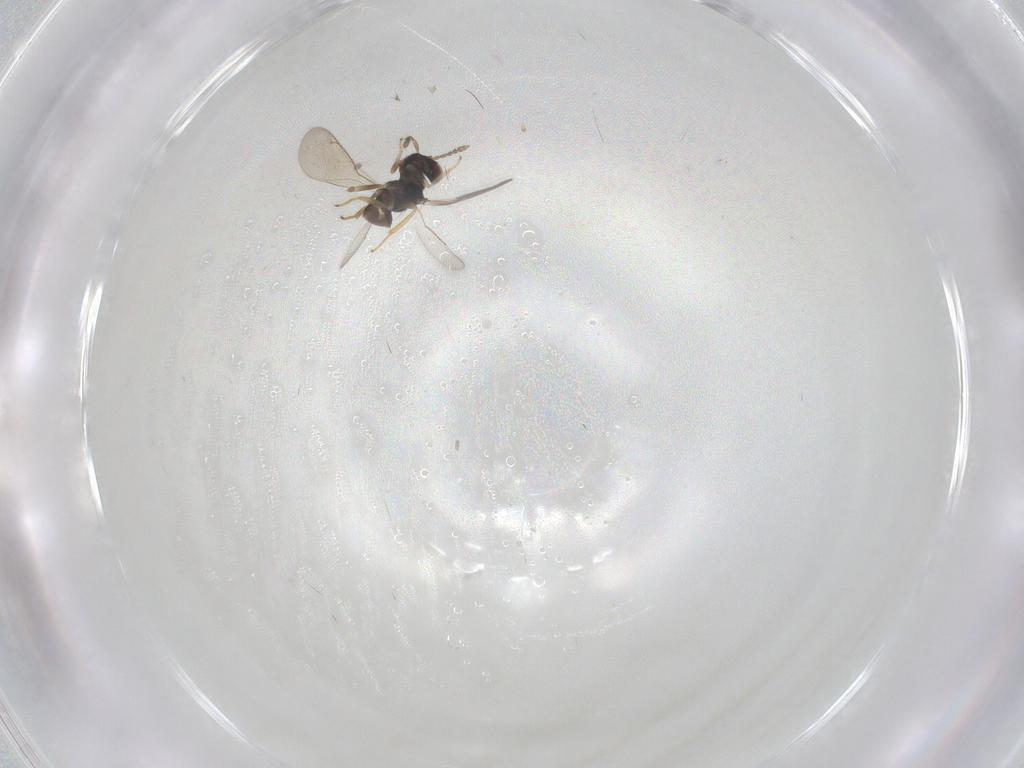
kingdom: Animalia
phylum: Arthropoda
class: Insecta
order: Hymenoptera
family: Eulophidae
